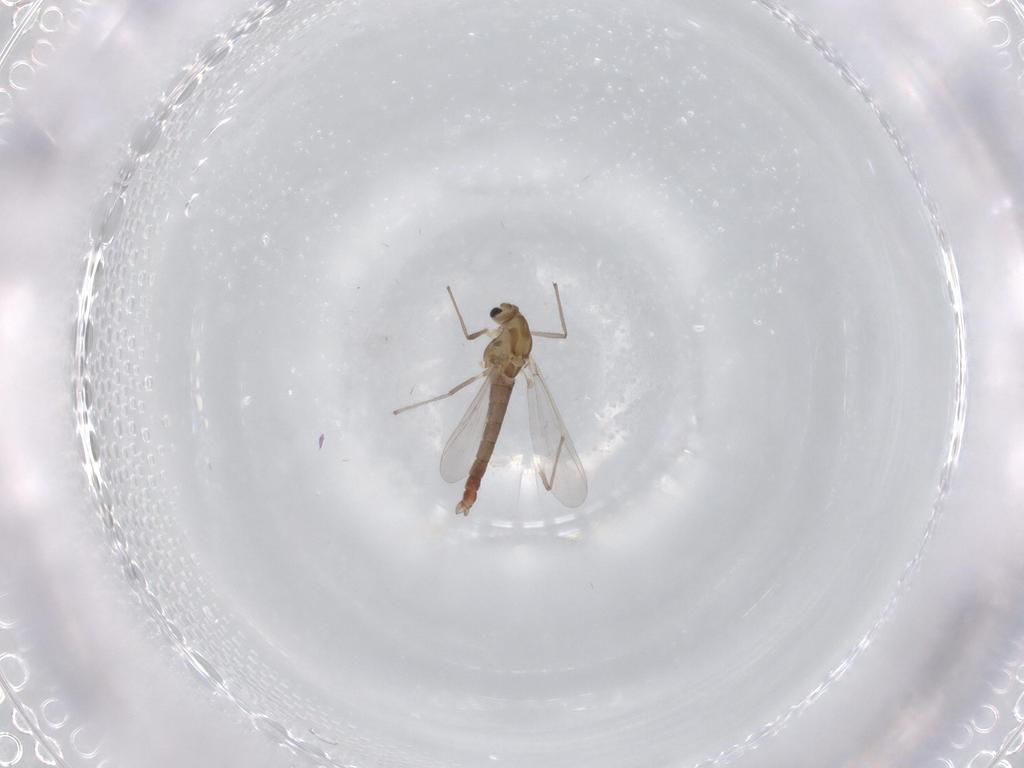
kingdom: Animalia
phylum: Arthropoda
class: Insecta
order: Diptera
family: Chironomidae
